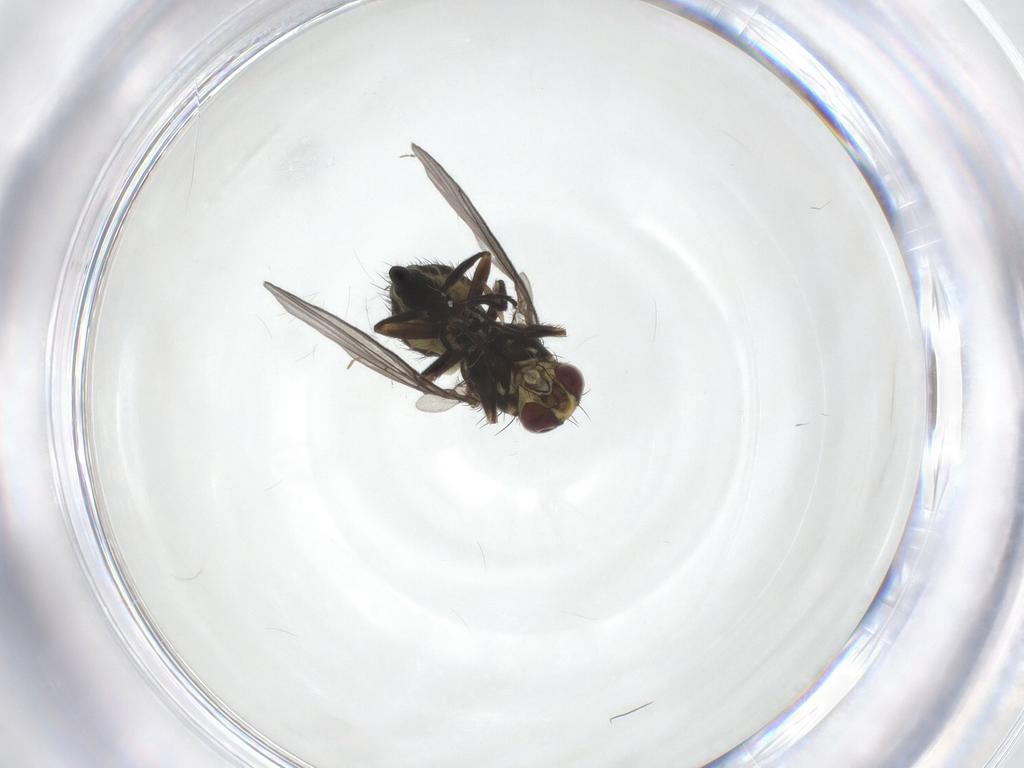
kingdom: Animalia
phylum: Arthropoda
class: Insecta
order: Diptera
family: Agromyzidae
